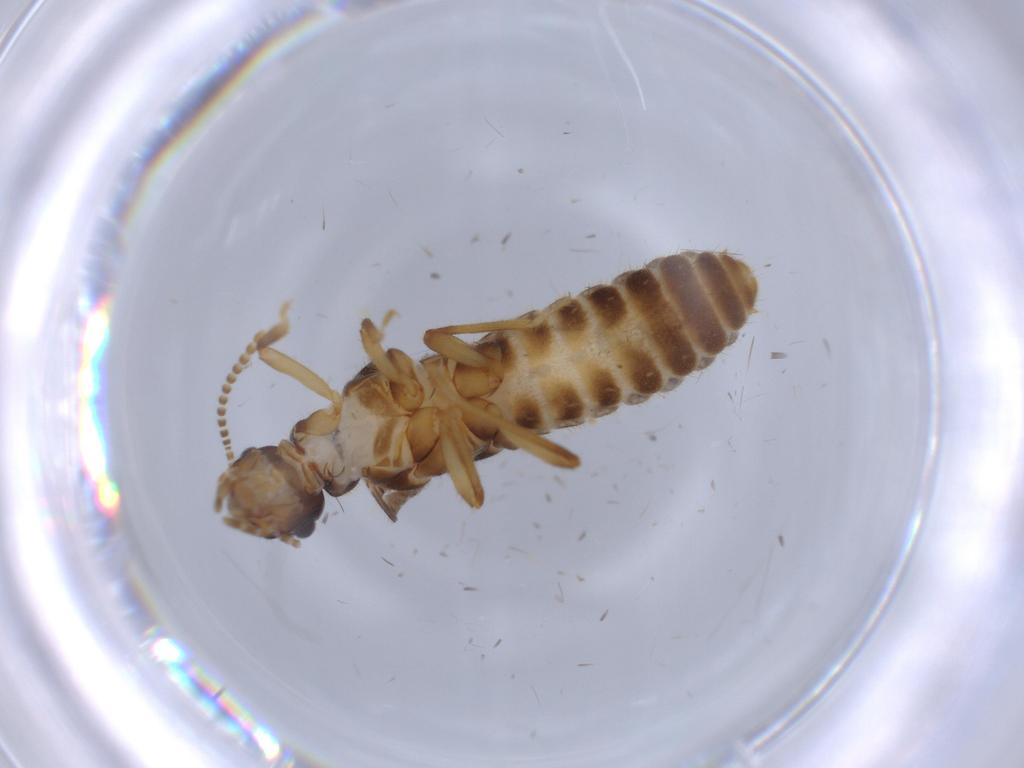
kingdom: Animalia
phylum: Arthropoda
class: Insecta
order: Blattodea
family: Termitidae
